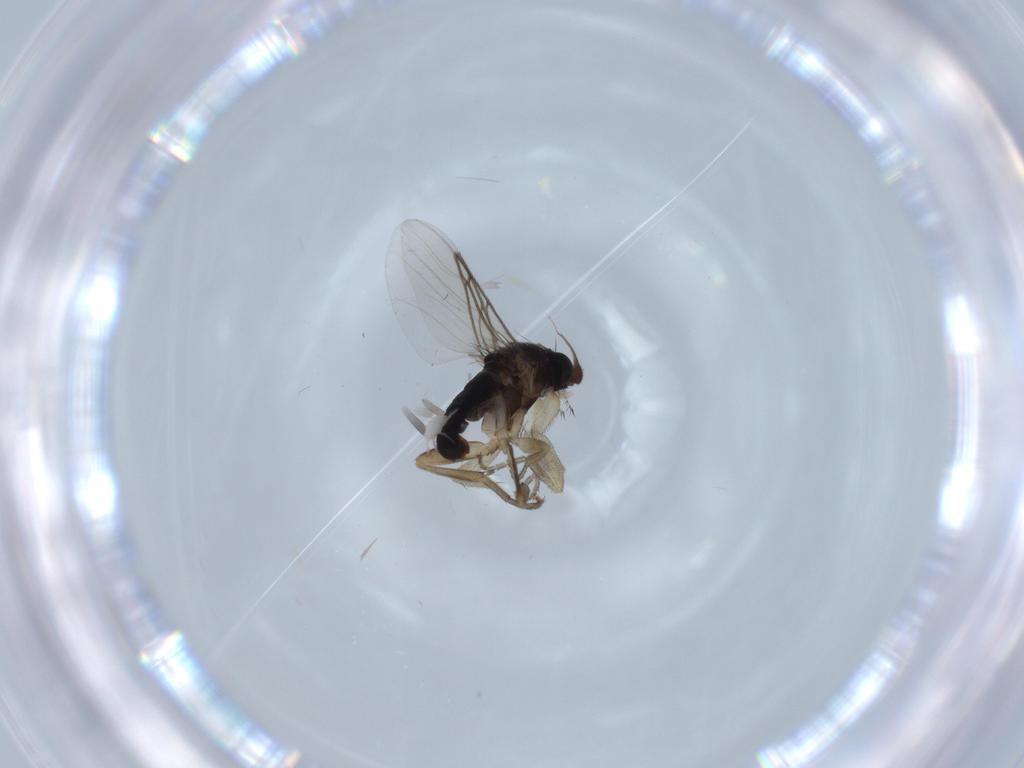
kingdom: Animalia
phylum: Arthropoda
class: Insecta
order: Diptera
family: Phoridae
